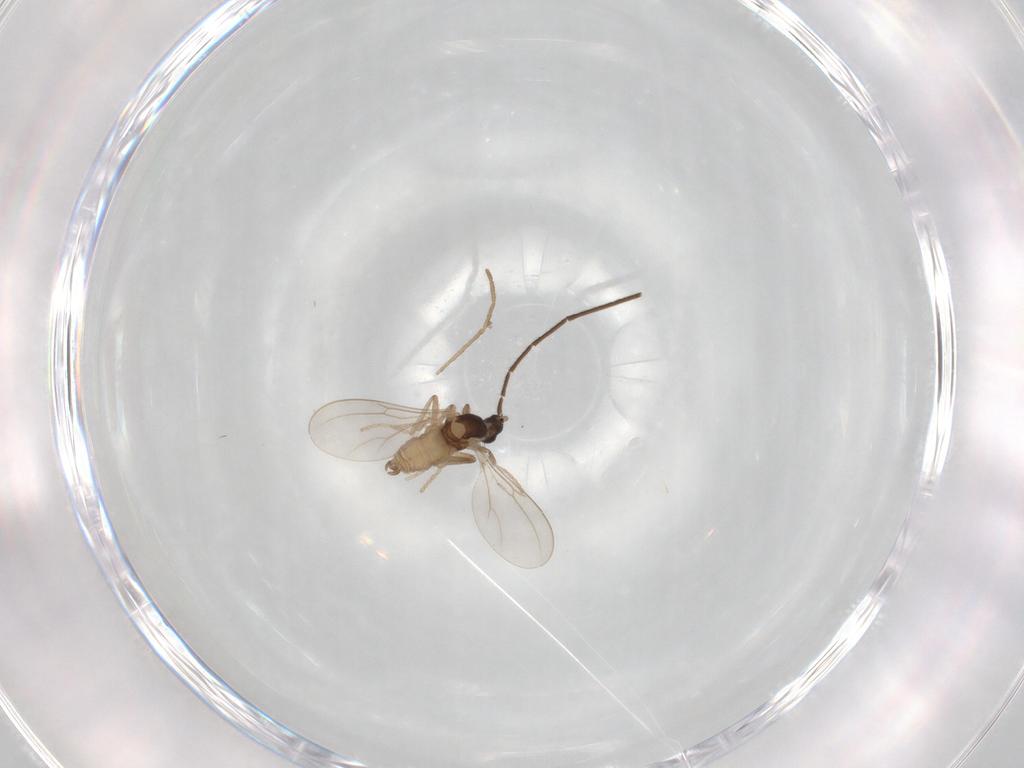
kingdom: Animalia
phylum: Arthropoda
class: Insecta
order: Diptera
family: Cecidomyiidae
